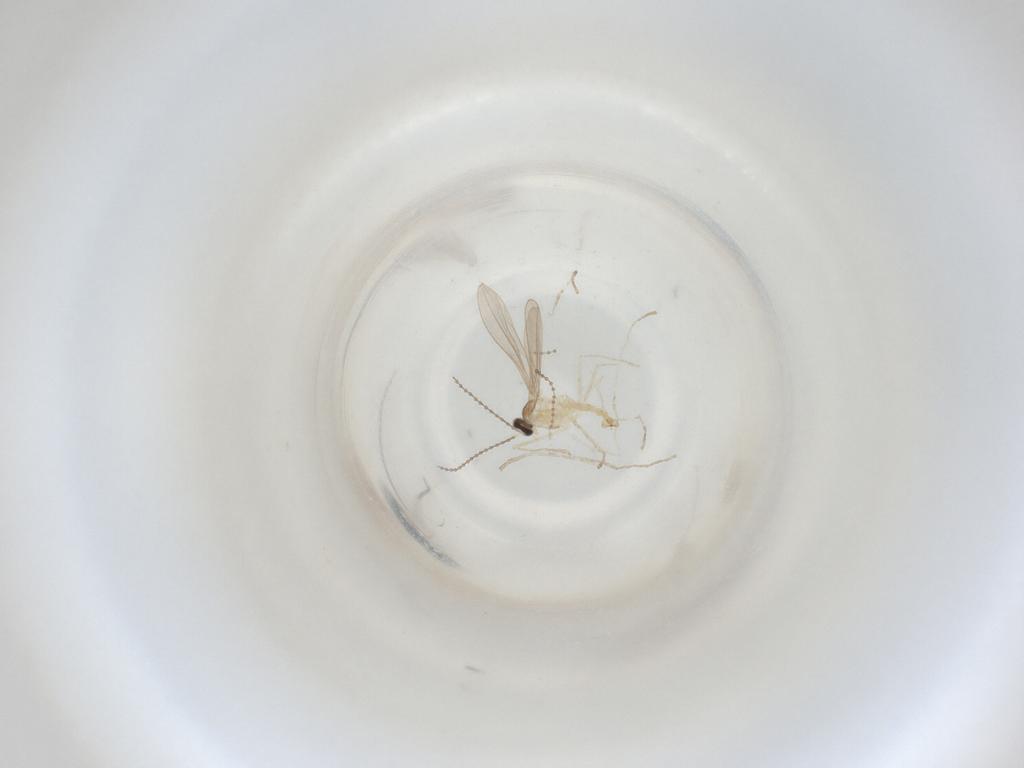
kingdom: Animalia
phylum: Arthropoda
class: Insecta
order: Diptera
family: Cecidomyiidae
